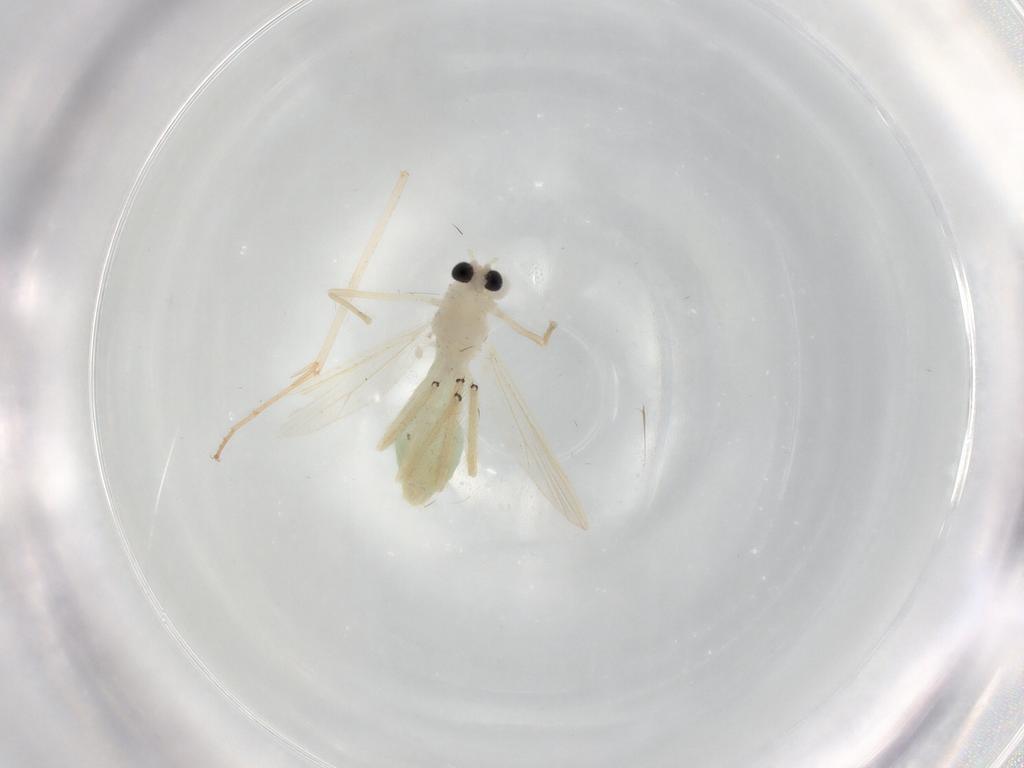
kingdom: Animalia
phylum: Arthropoda
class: Insecta
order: Diptera
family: Chironomidae
